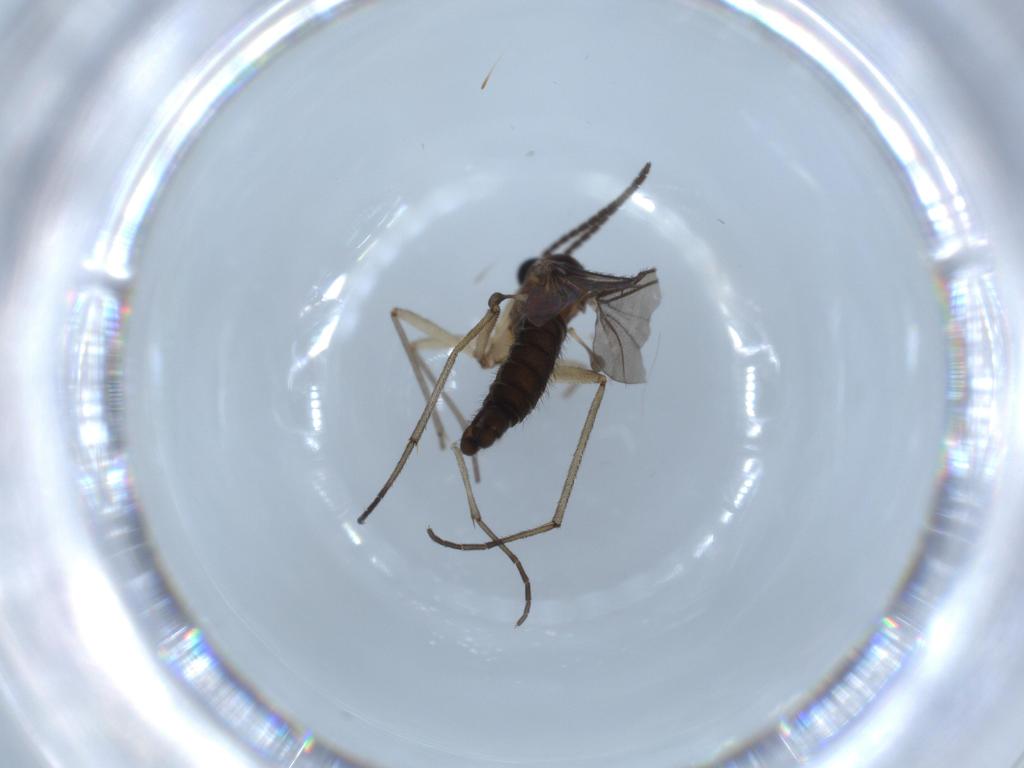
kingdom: Animalia
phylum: Arthropoda
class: Insecta
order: Diptera
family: Sciaridae
